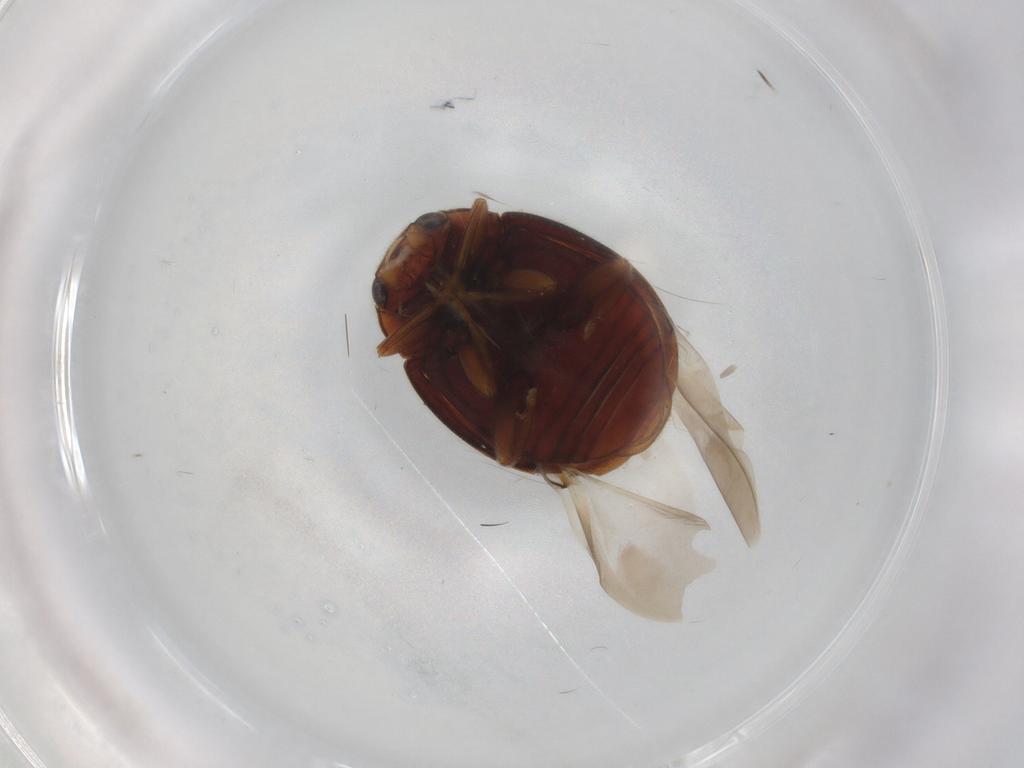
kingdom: Animalia
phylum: Arthropoda
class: Insecta
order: Coleoptera
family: Coccinellidae
